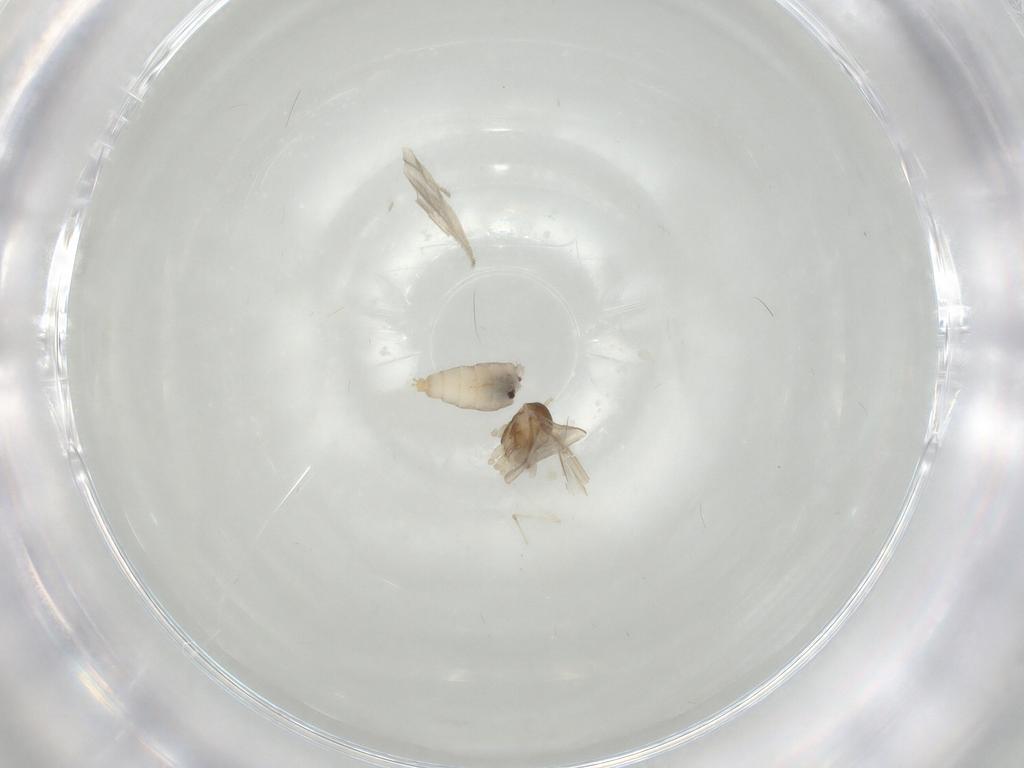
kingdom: Animalia
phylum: Arthropoda
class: Insecta
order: Diptera
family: Cecidomyiidae
